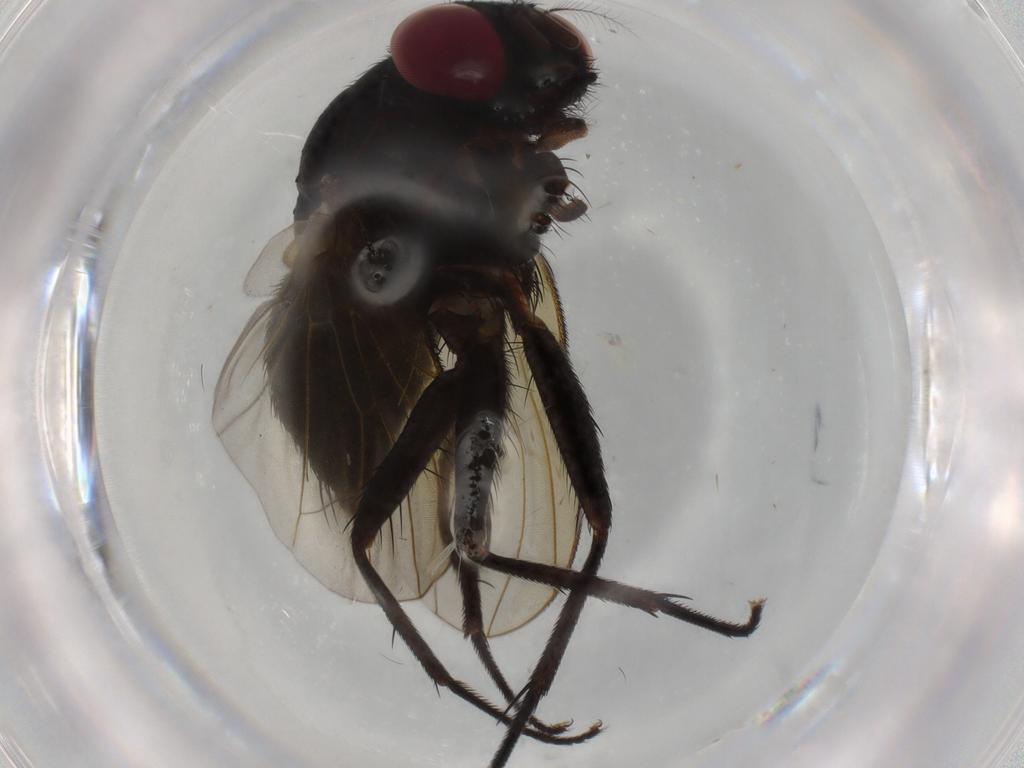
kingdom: Animalia
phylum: Arthropoda
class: Insecta
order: Diptera
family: Muscidae
